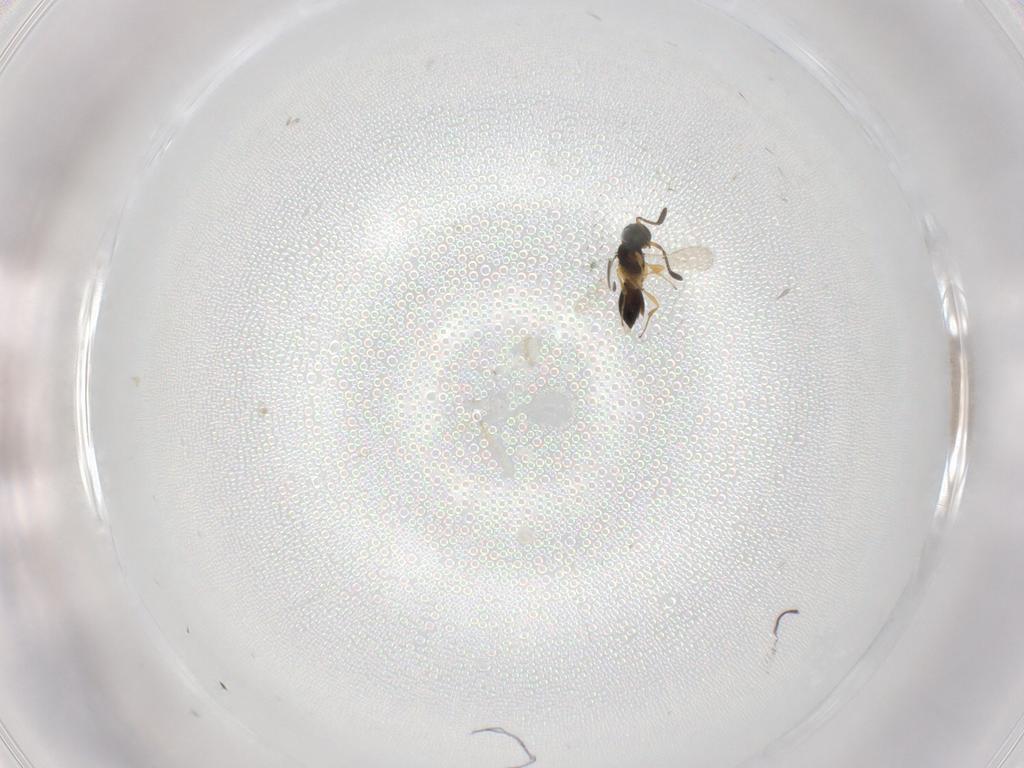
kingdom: Animalia
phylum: Arthropoda
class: Insecta
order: Hymenoptera
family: Scelionidae
